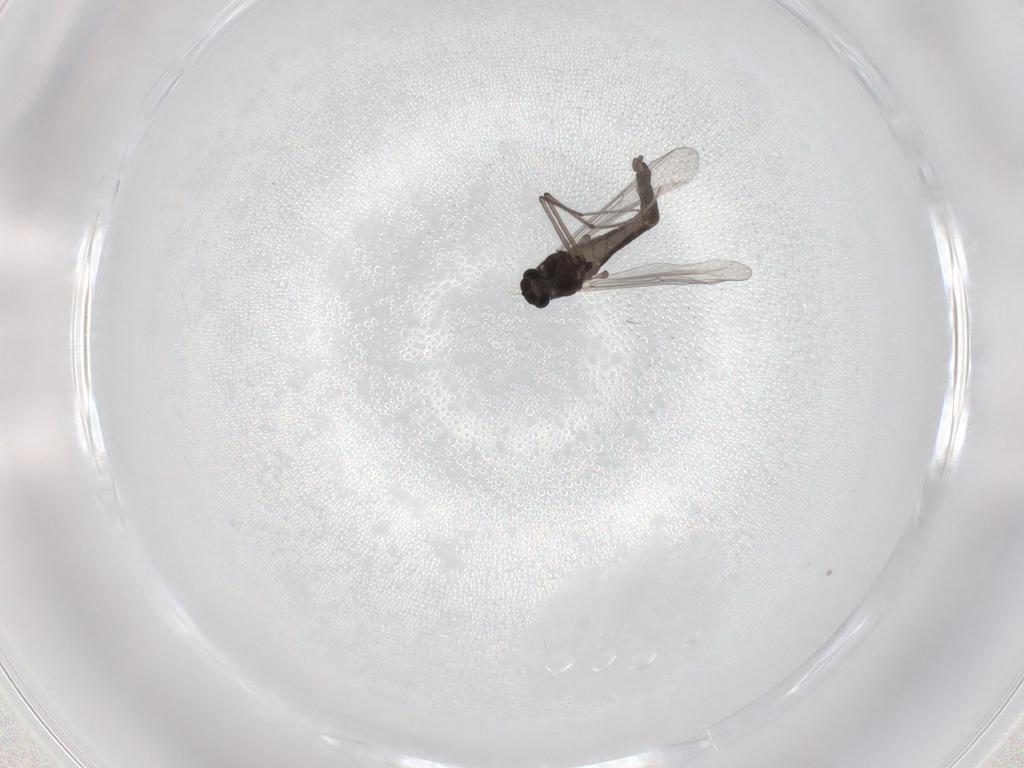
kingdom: Animalia
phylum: Arthropoda
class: Insecta
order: Diptera
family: Chironomidae
